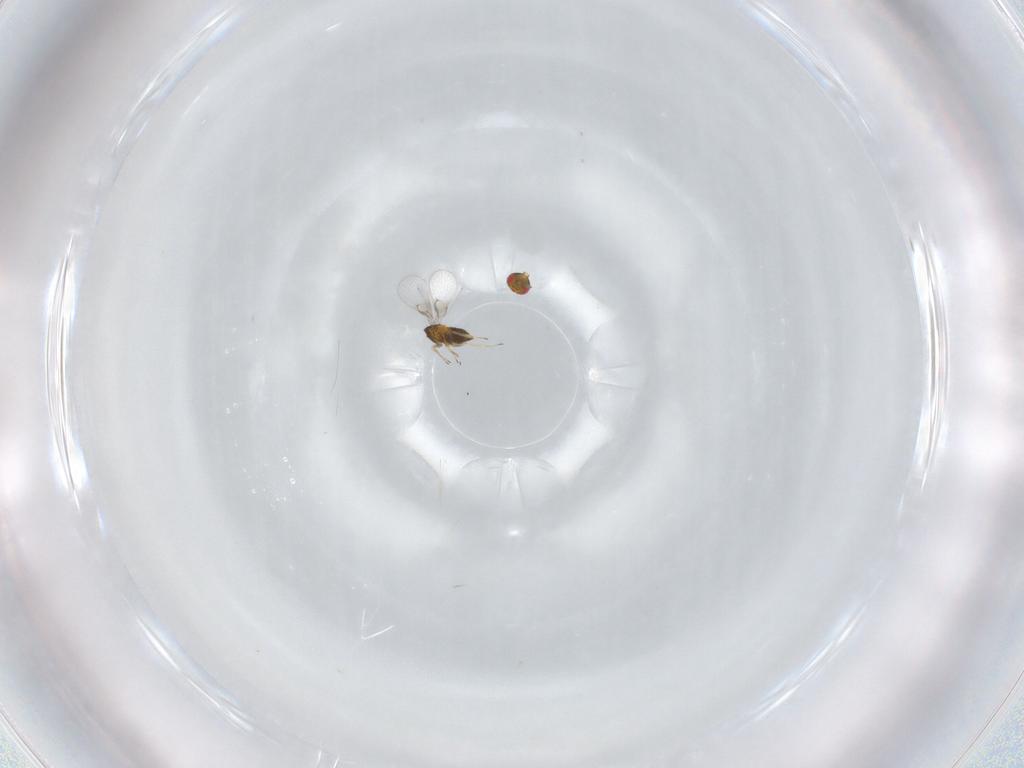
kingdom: Animalia
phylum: Arthropoda
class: Insecta
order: Hymenoptera
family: Trichogrammatidae
